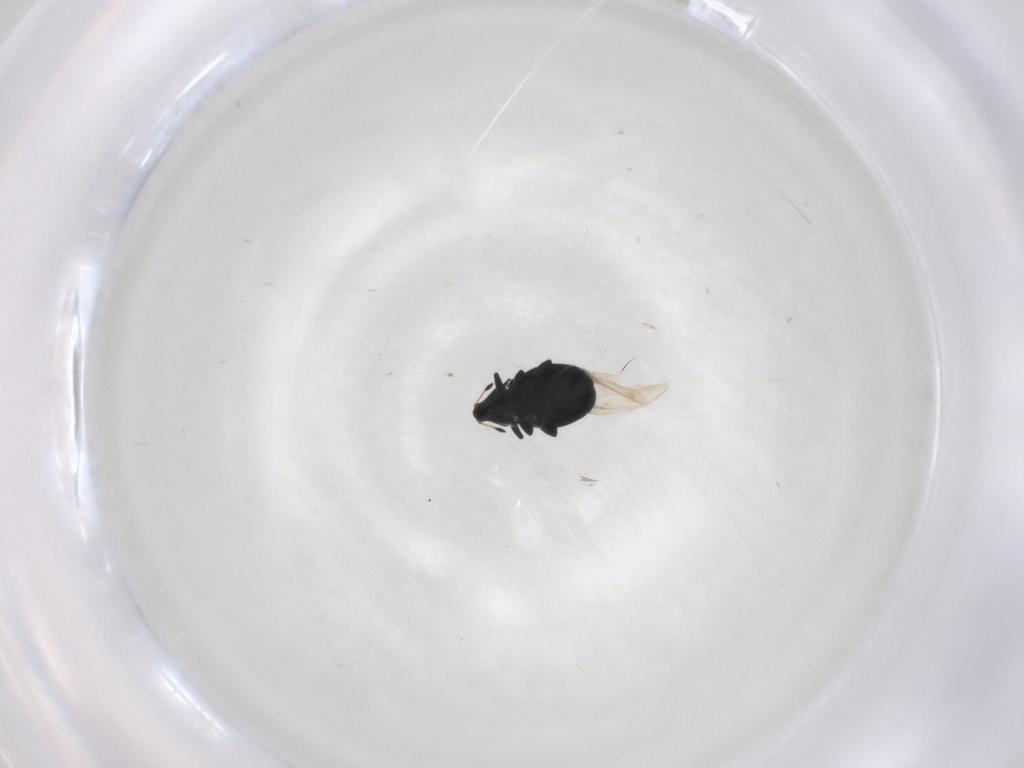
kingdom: Animalia
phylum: Arthropoda
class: Insecta
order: Coleoptera
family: Curculionidae
